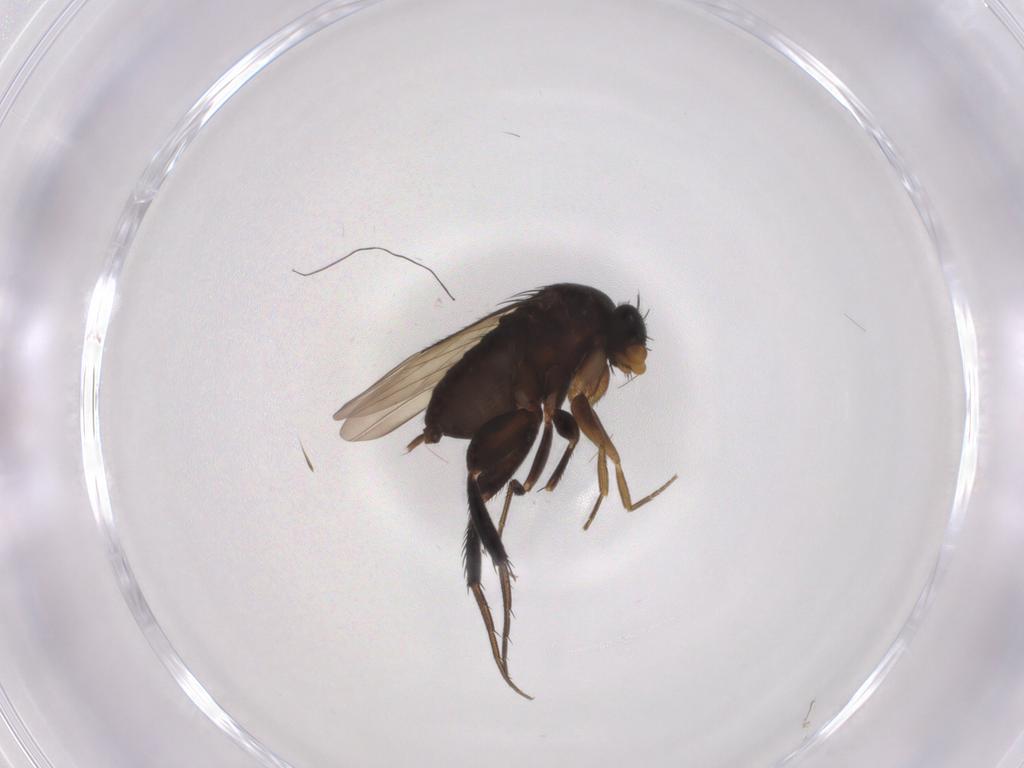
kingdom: Animalia
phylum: Arthropoda
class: Insecta
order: Diptera
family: Phoridae
